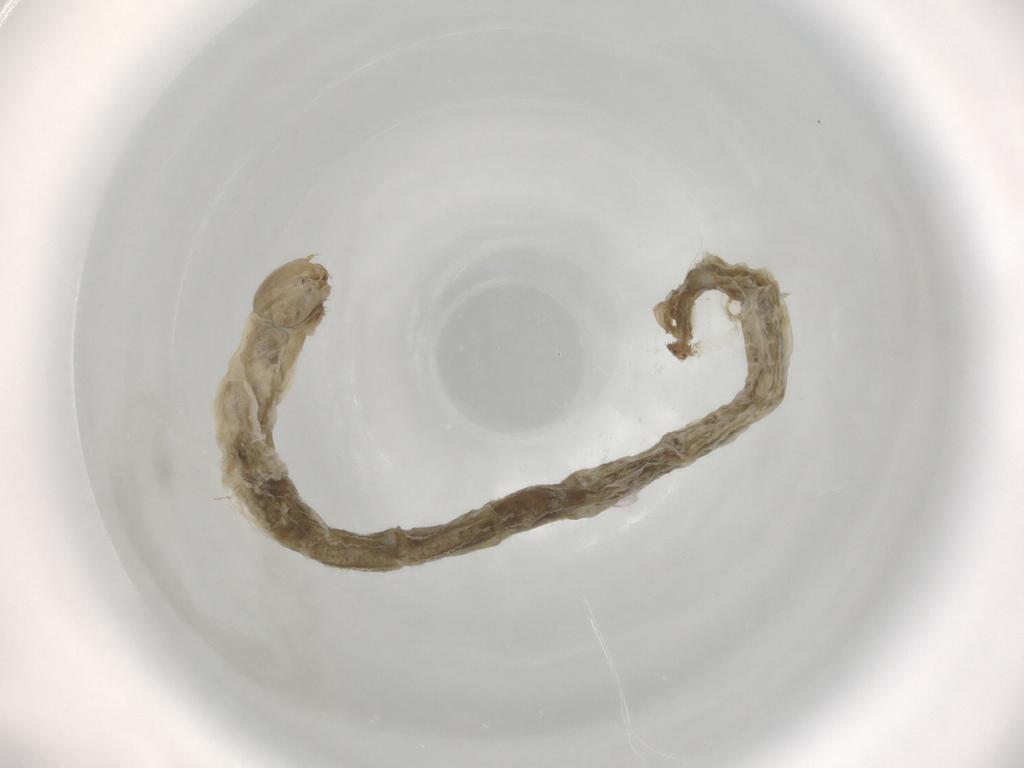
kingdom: Animalia
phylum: Arthropoda
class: Insecta
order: Diptera
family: Chironomidae
